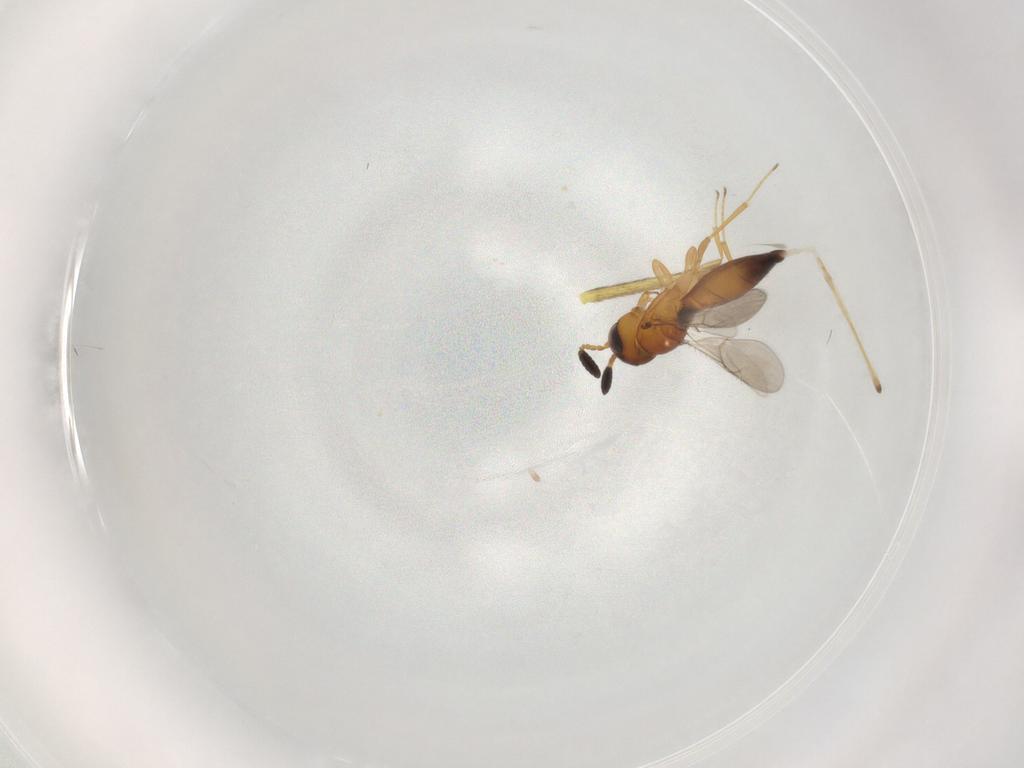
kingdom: Animalia
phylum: Arthropoda
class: Insecta
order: Hymenoptera
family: Scelionidae
